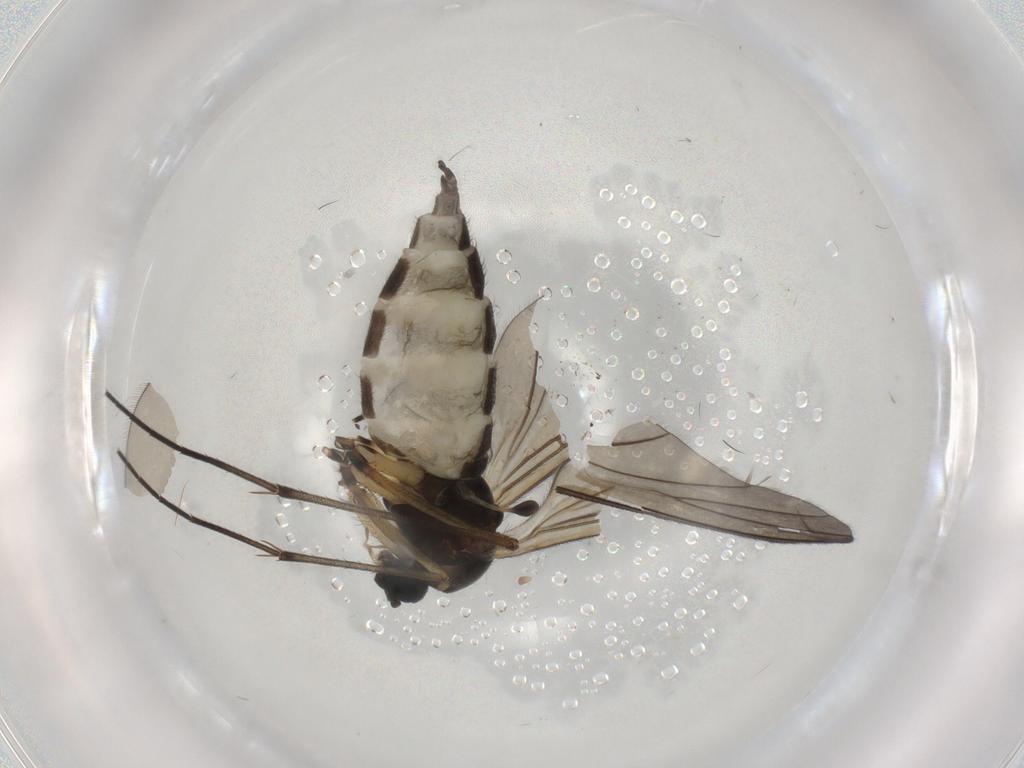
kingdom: Animalia
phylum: Arthropoda
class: Insecta
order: Diptera
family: Sciaridae
